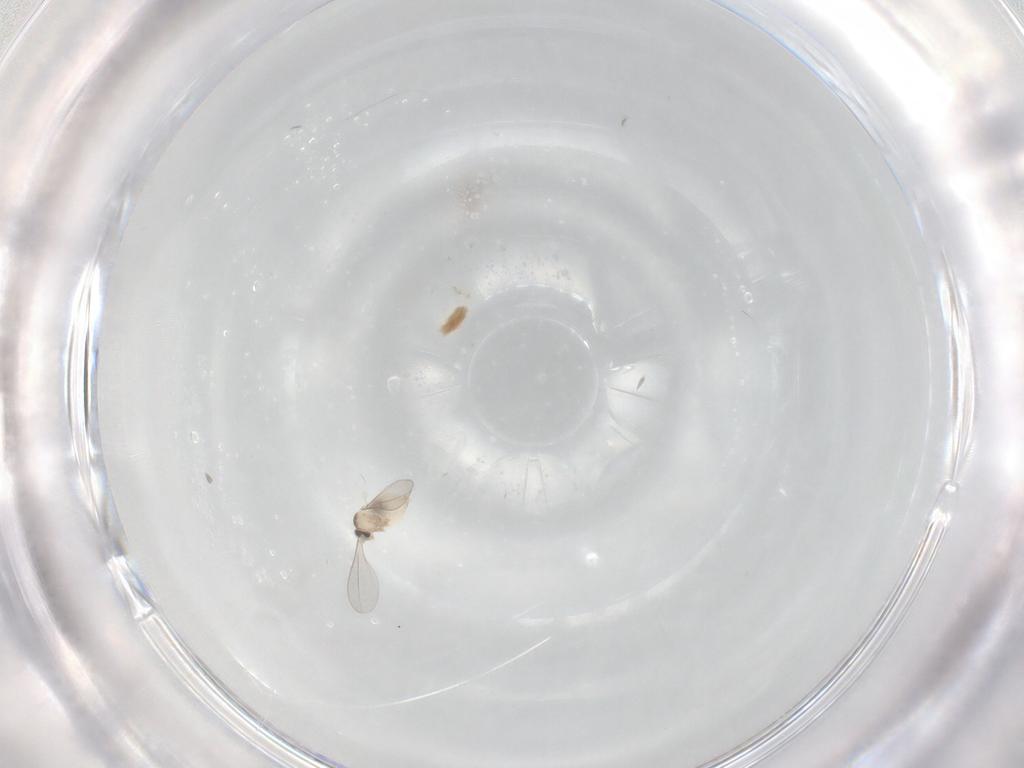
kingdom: Animalia
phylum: Arthropoda
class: Insecta
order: Diptera
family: Cecidomyiidae
